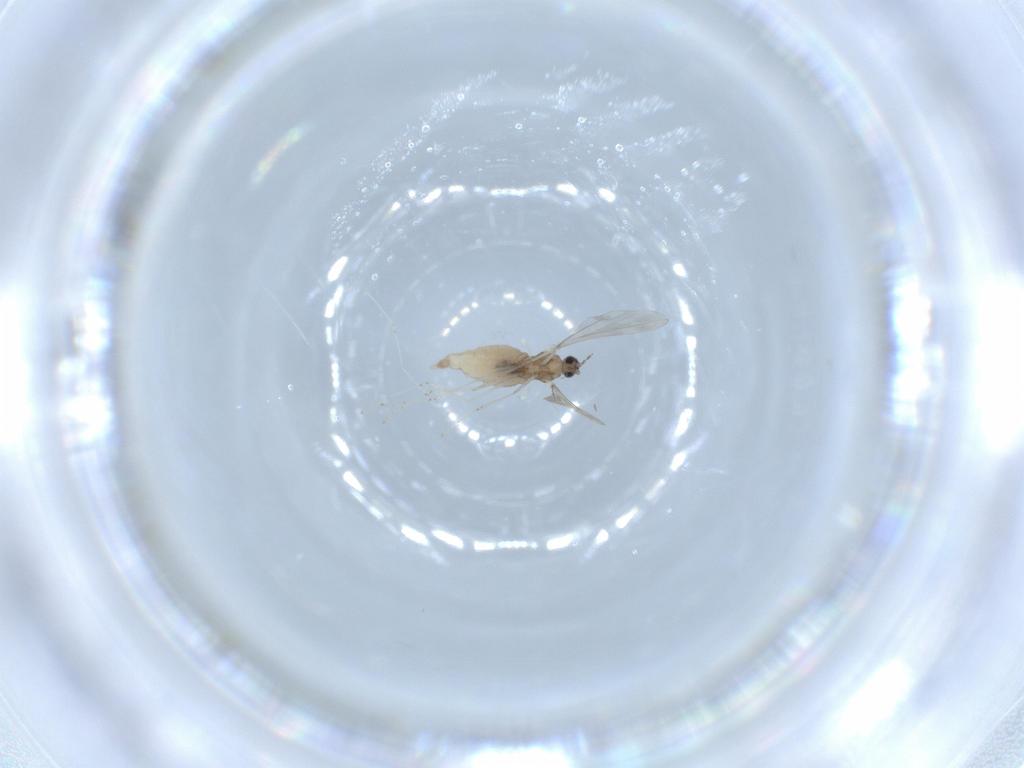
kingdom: Animalia
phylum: Arthropoda
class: Insecta
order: Diptera
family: Cecidomyiidae
